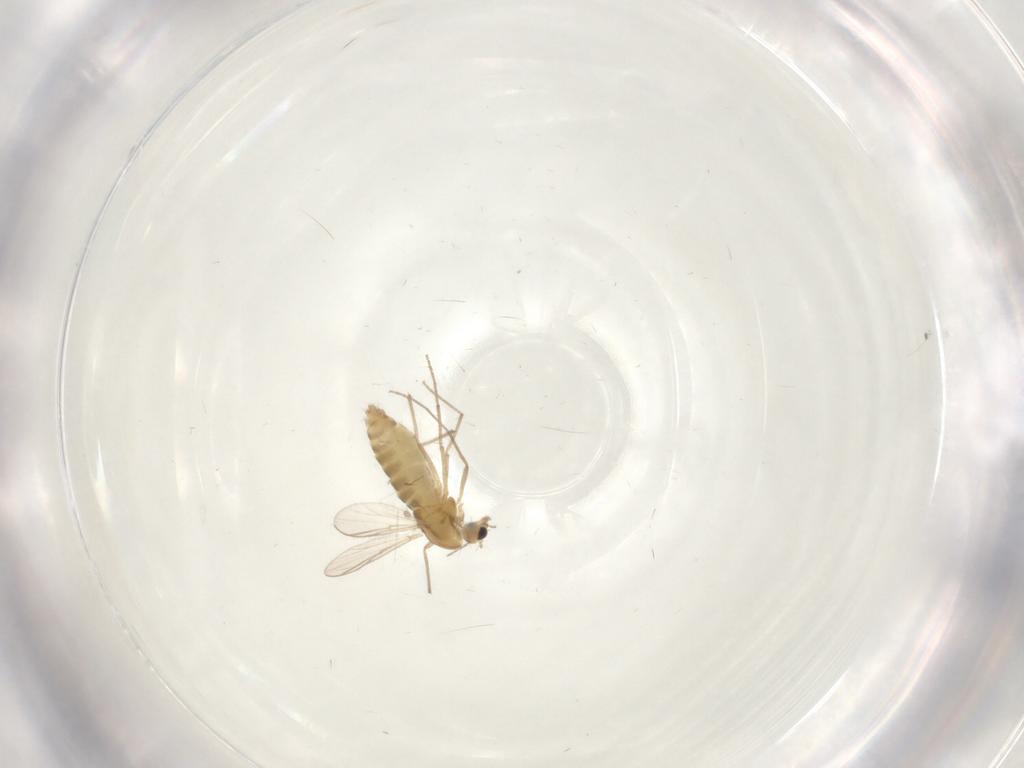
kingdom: Animalia
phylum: Arthropoda
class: Insecta
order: Diptera
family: Chironomidae
